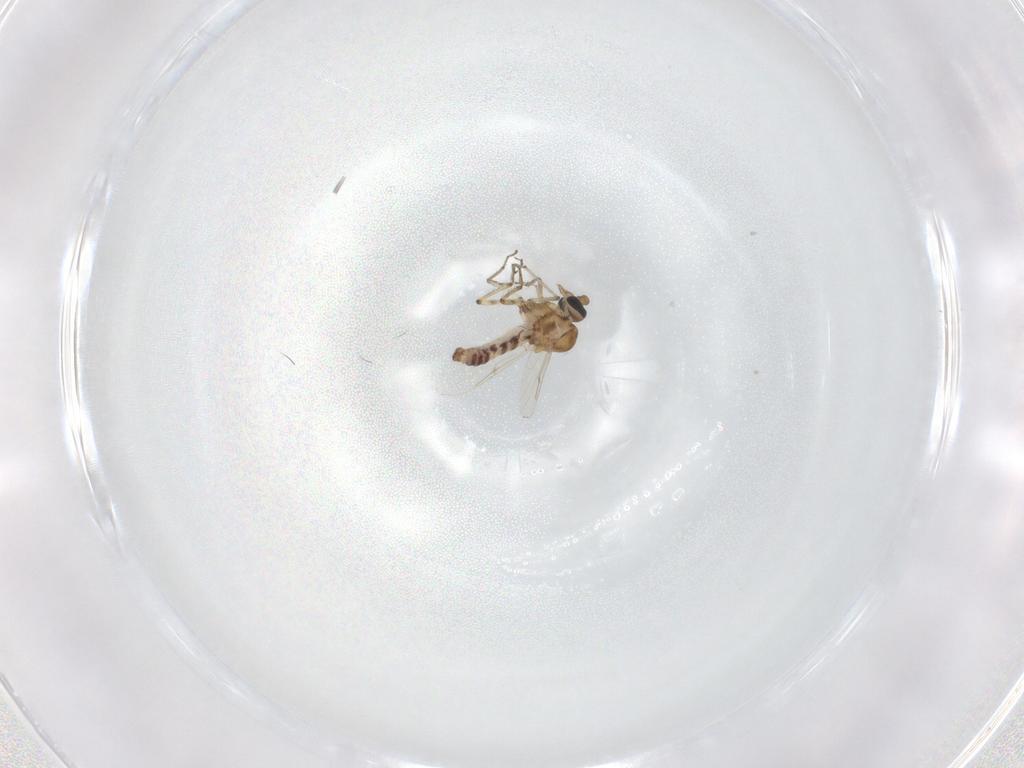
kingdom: Animalia
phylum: Arthropoda
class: Insecta
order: Diptera
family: Ceratopogonidae
